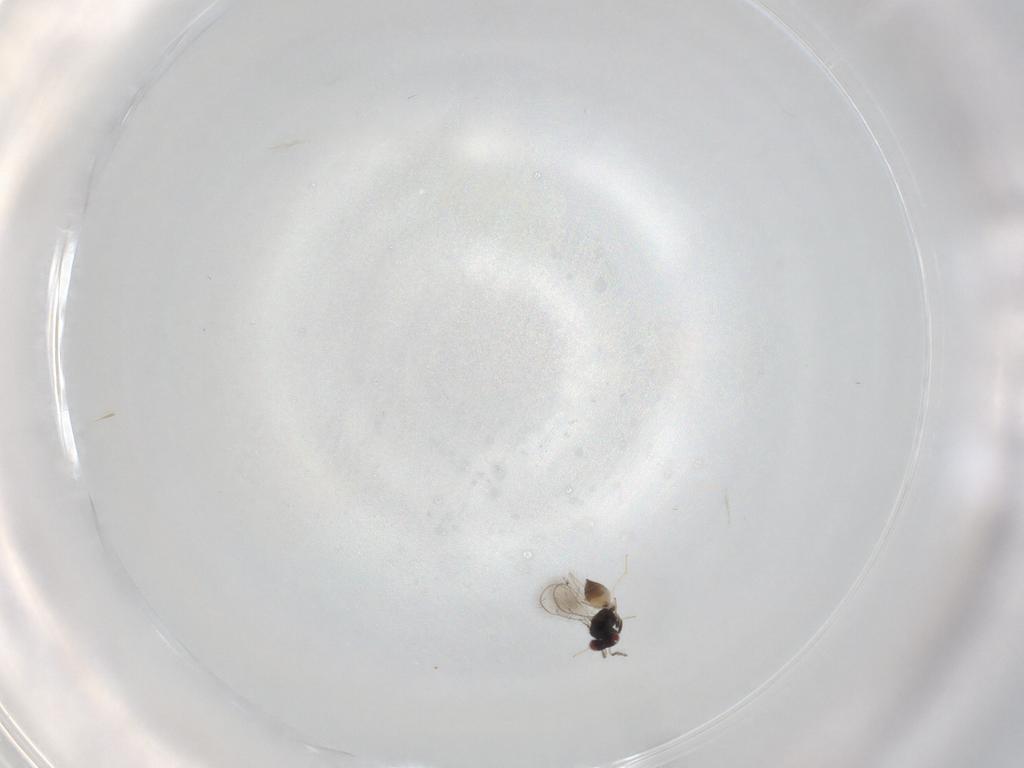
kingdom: Animalia
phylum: Arthropoda
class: Insecta
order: Hymenoptera
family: Eulophidae
